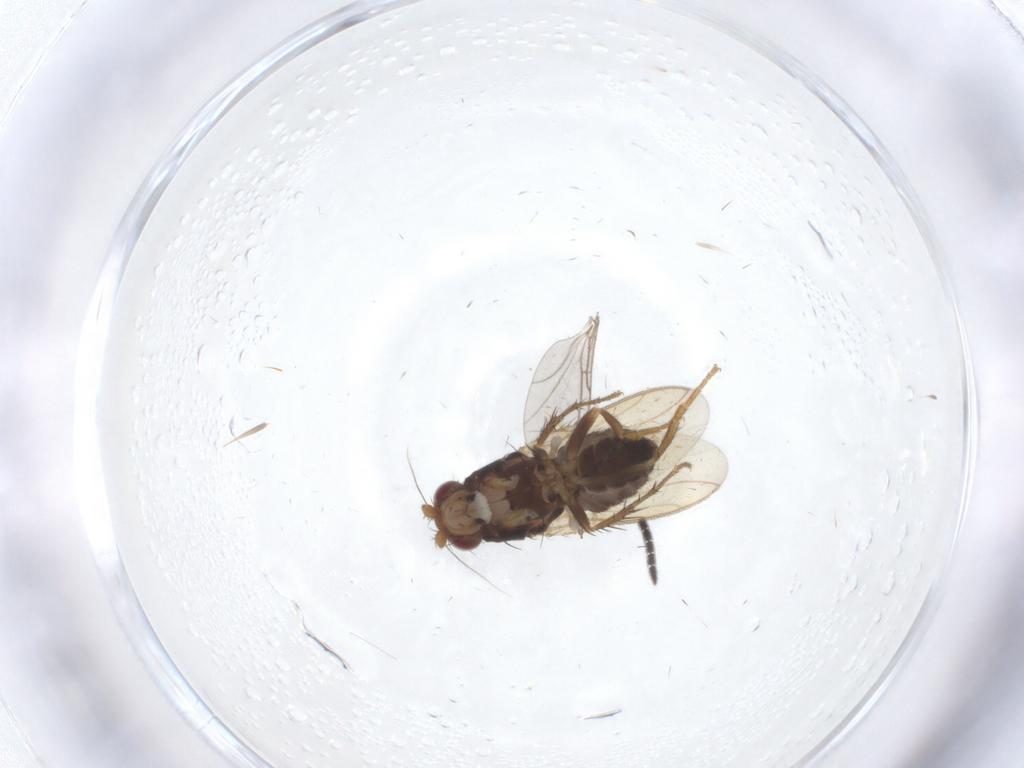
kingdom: Animalia
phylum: Arthropoda
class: Insecta
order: Diptera
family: Sphaeroceridae
